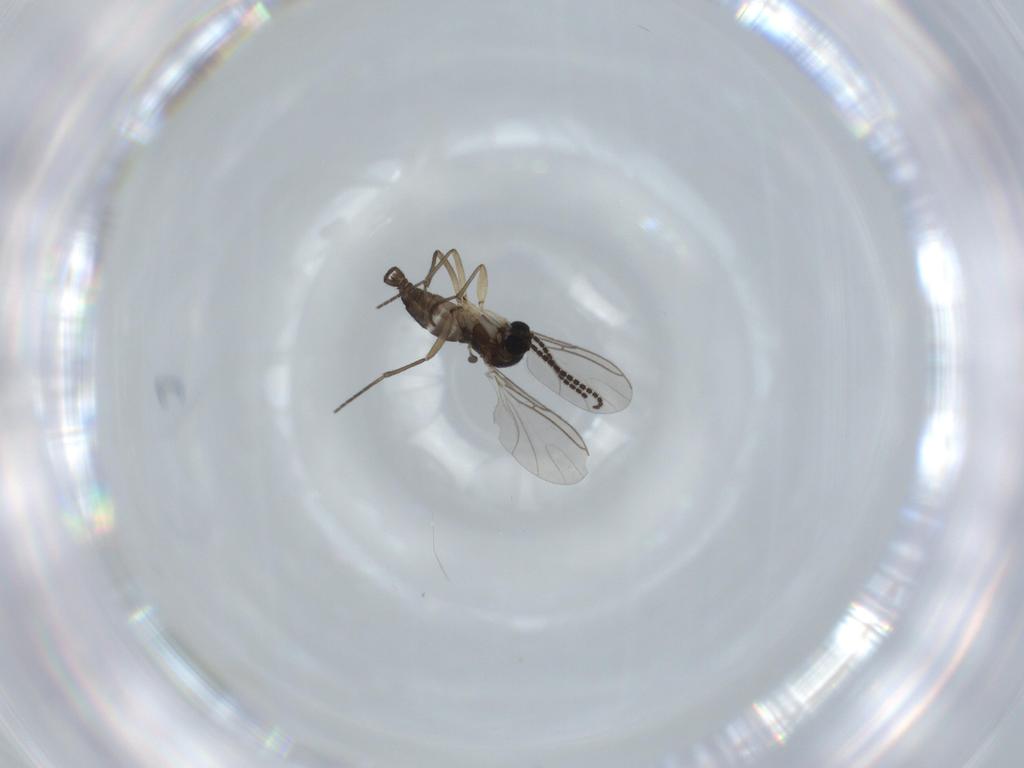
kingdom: Animalia
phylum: Arthropoda
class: Insecta
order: Diptera
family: Sciaridae
